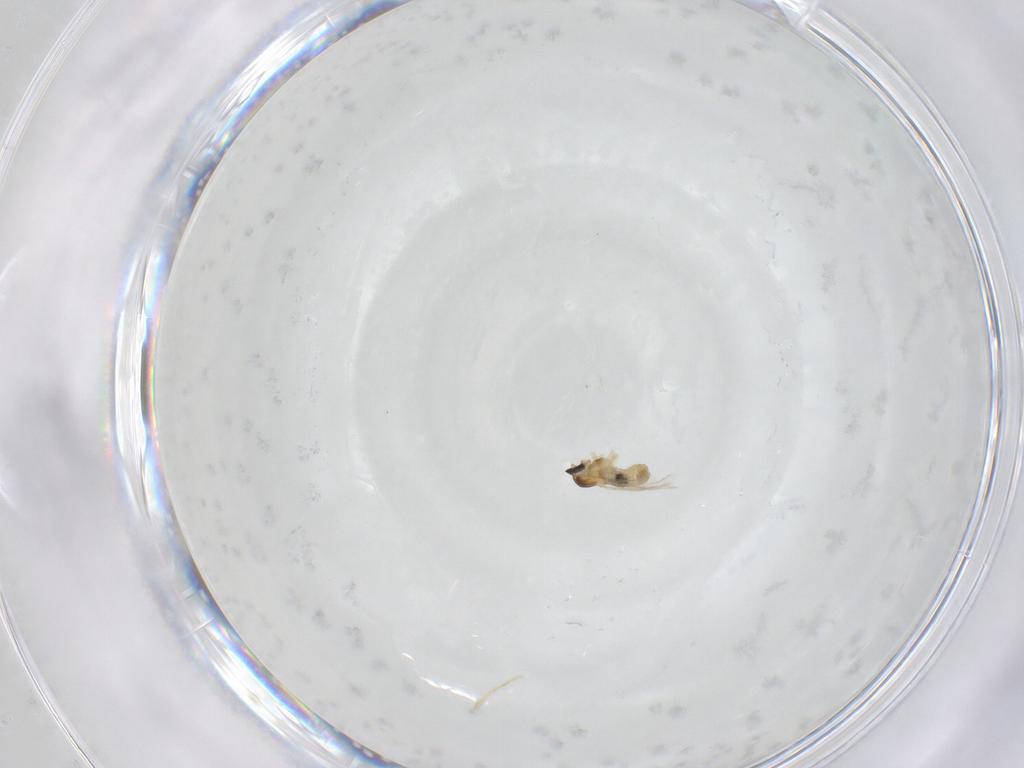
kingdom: Animalia
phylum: Arthropoda
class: Insecta
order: Diptera
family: Cecidomyiidae
